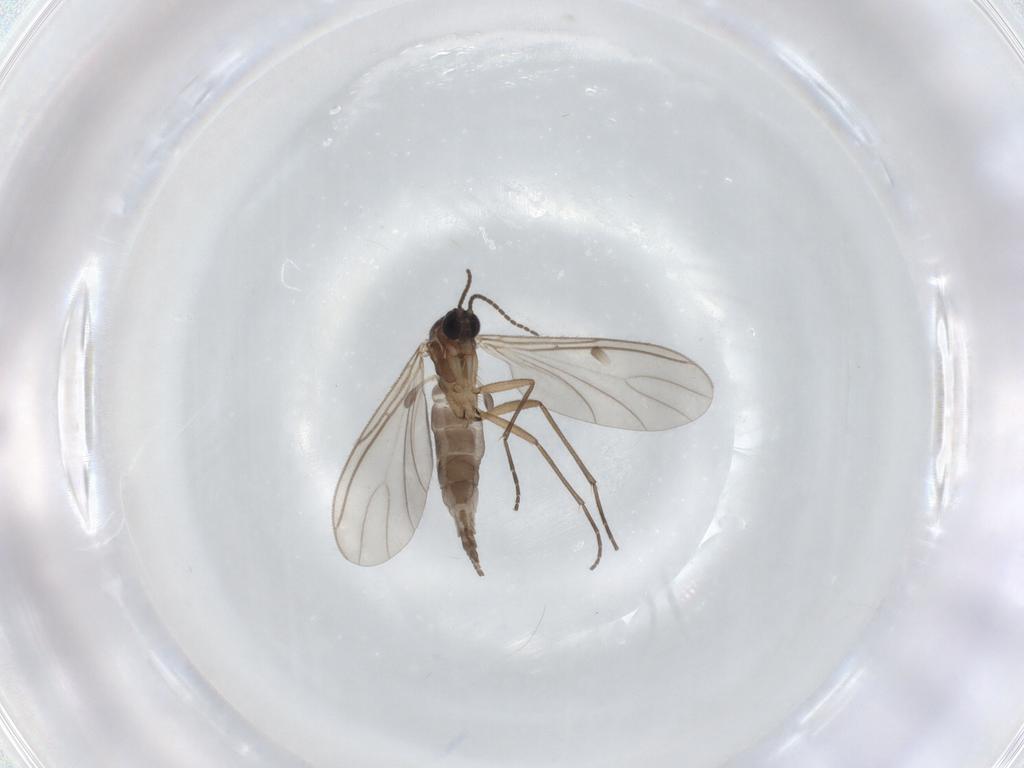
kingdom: Animalia
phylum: Arthropoda
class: Insecta
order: Diptera
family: Sciaridae
